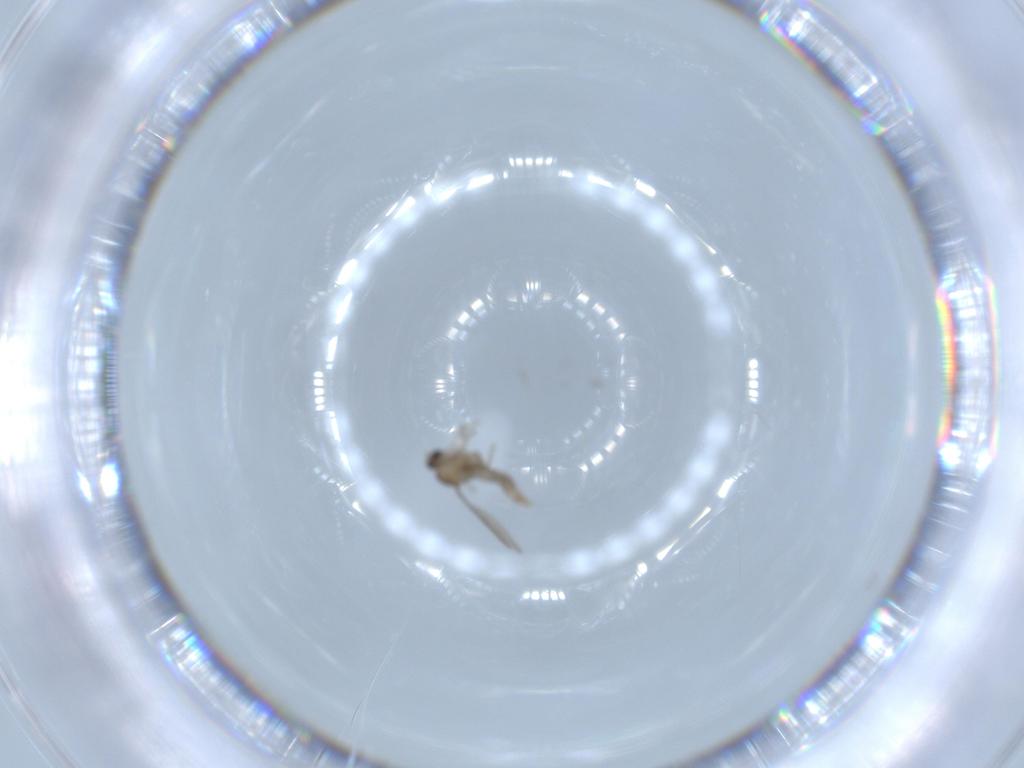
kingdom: Animalia
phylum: Arthropoda
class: Insecta
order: Diptera
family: Cecidomyiidae
